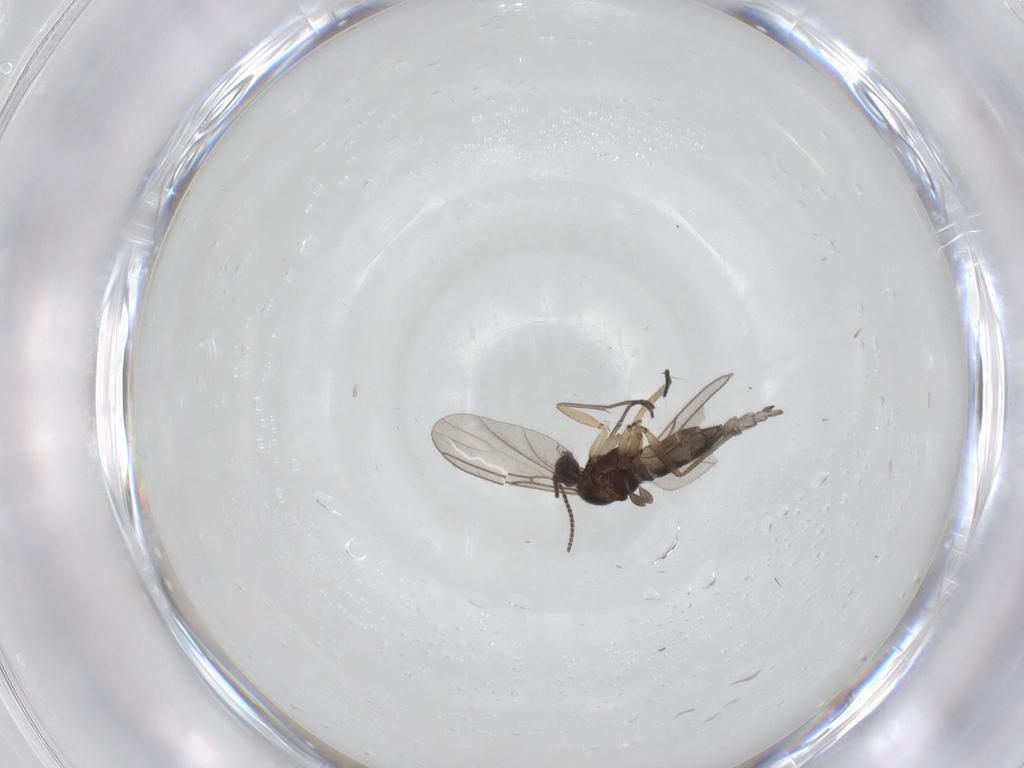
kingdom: Animalia
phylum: Arthropoda
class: Insecta
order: Diptera
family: Sciaridae
